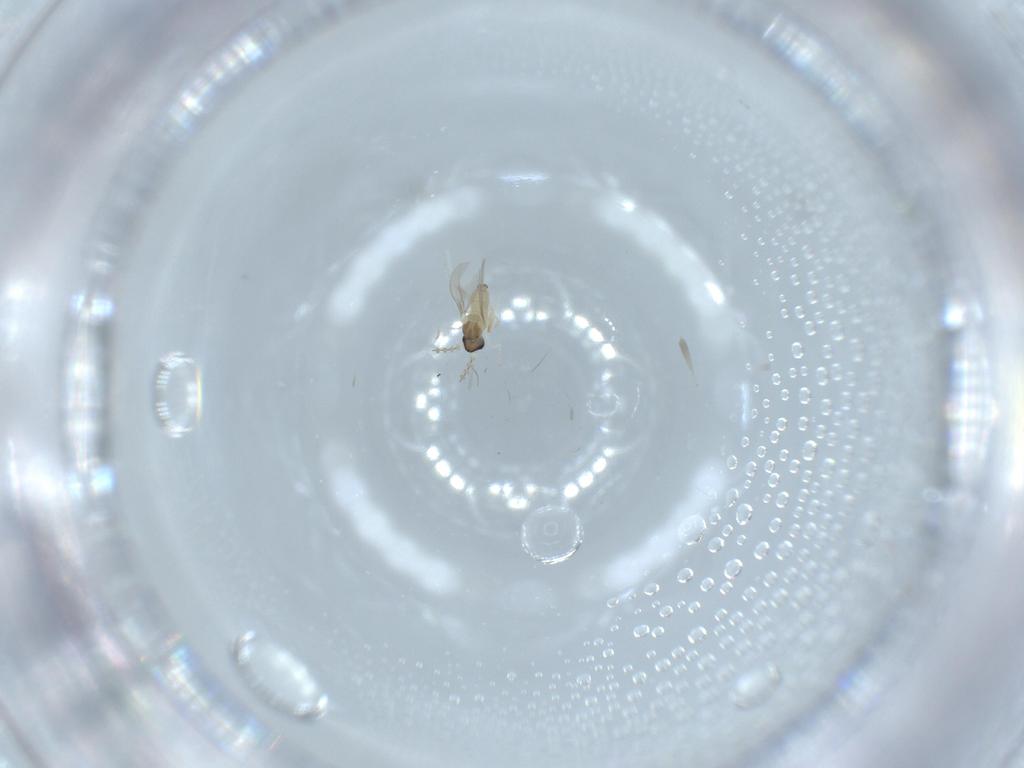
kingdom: Animalia
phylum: Arthropoda
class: Insecta
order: Diptera
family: Cecidomyiidae
